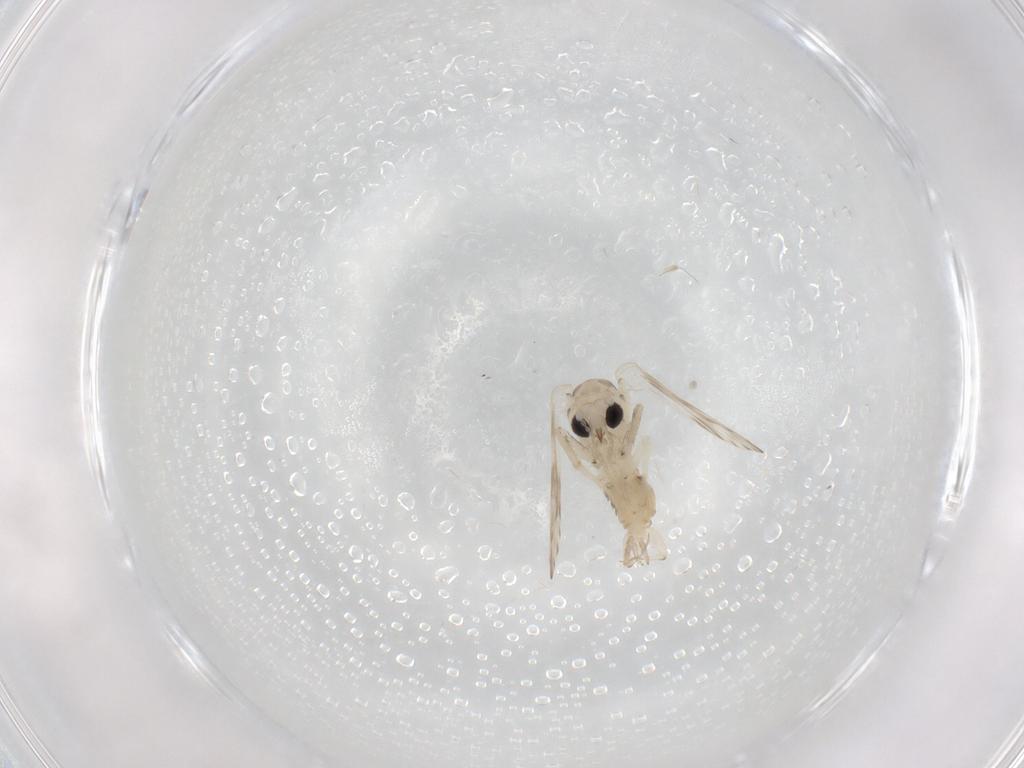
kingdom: Animalia
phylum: Arthropoda
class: Insecta
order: Diptera
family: Psychodidae
